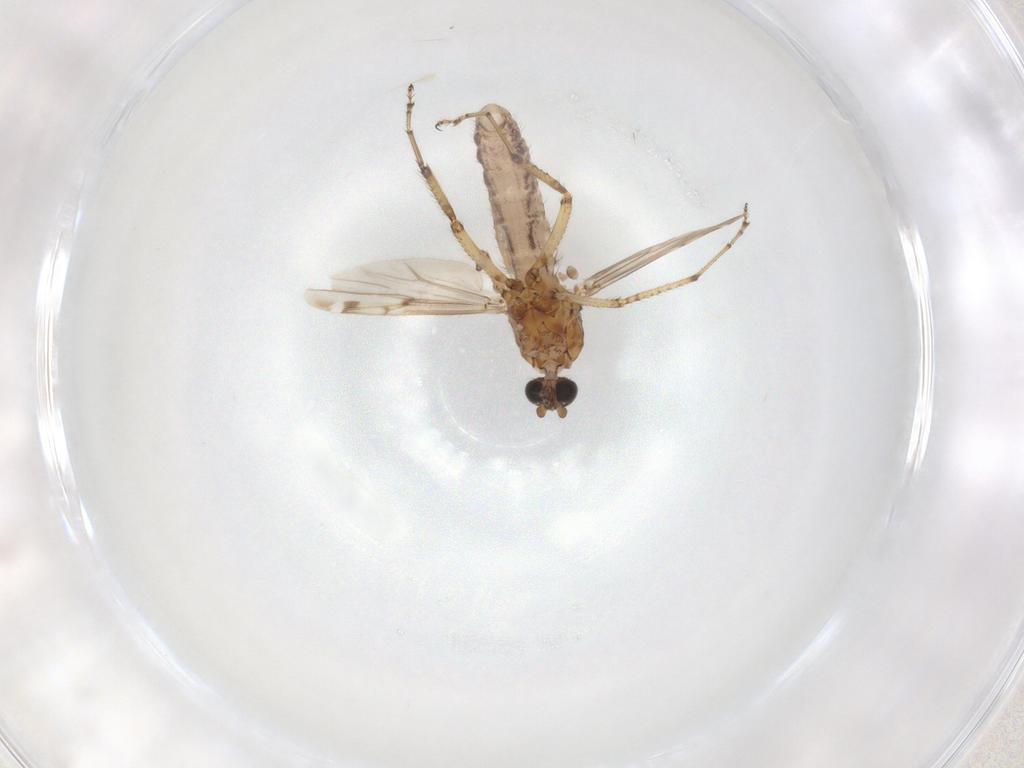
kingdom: Animalia
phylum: Arthropoda
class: Insecta
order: Diptera
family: Ceratopogonidae
